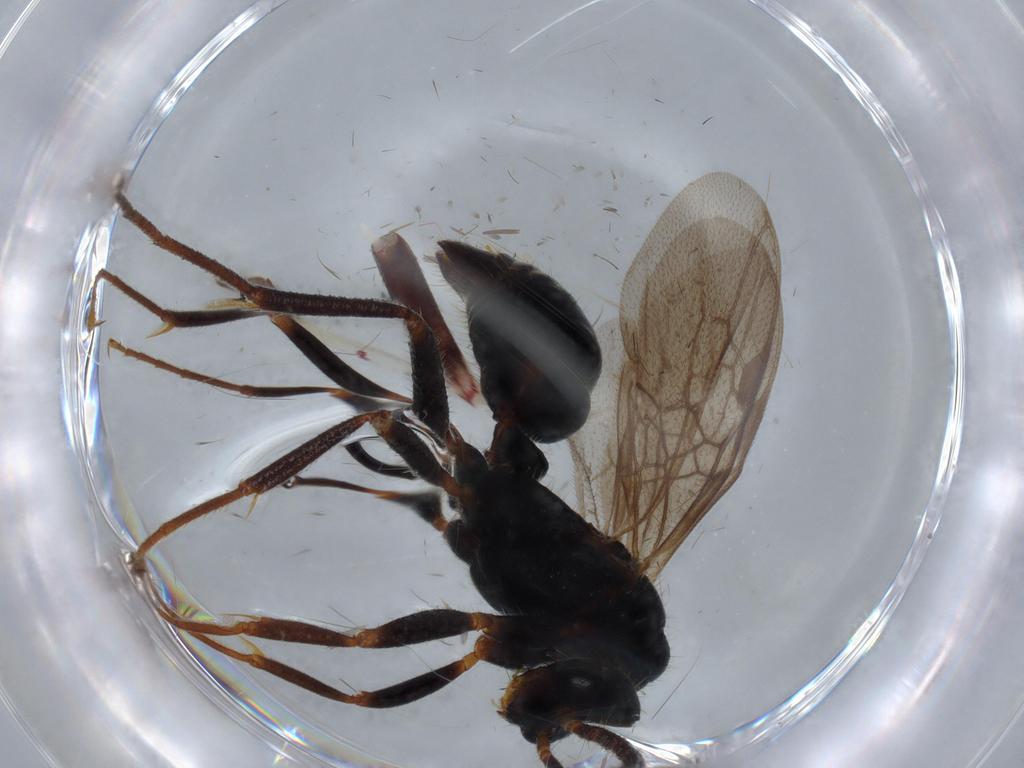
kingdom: Animalia
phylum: Arthropoda
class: Insecta
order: Hymenoptera
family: Formicidae
